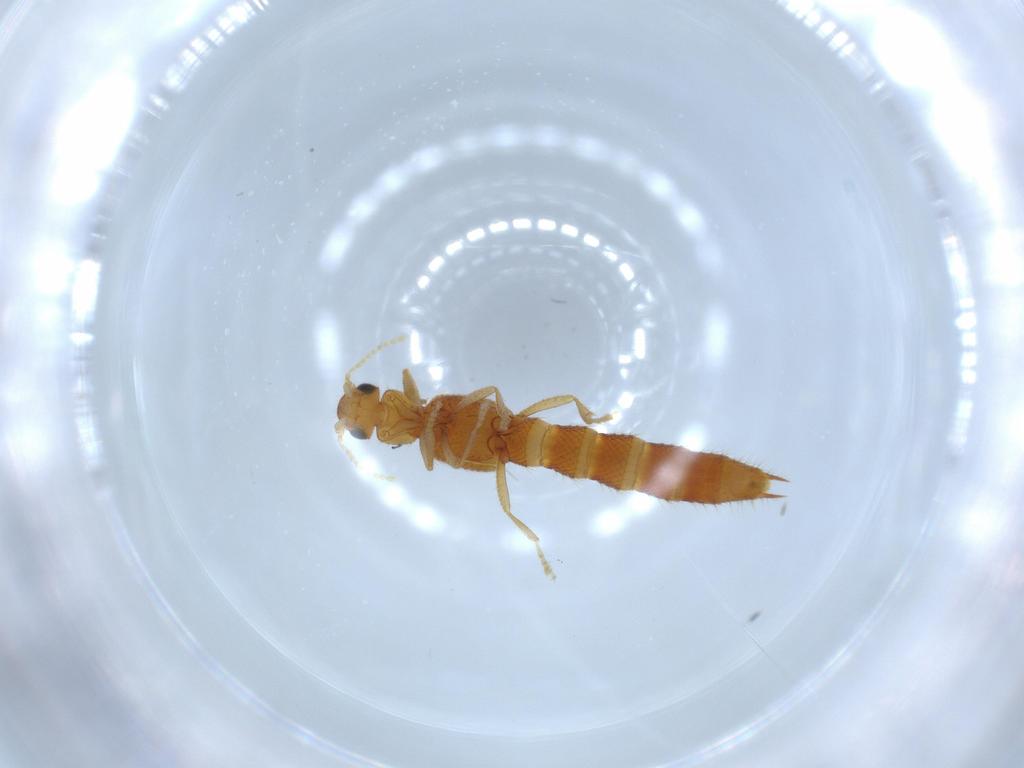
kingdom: Animalia
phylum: Arthropoda
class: Insecta
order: Coleoptera
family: Staphylinidae
